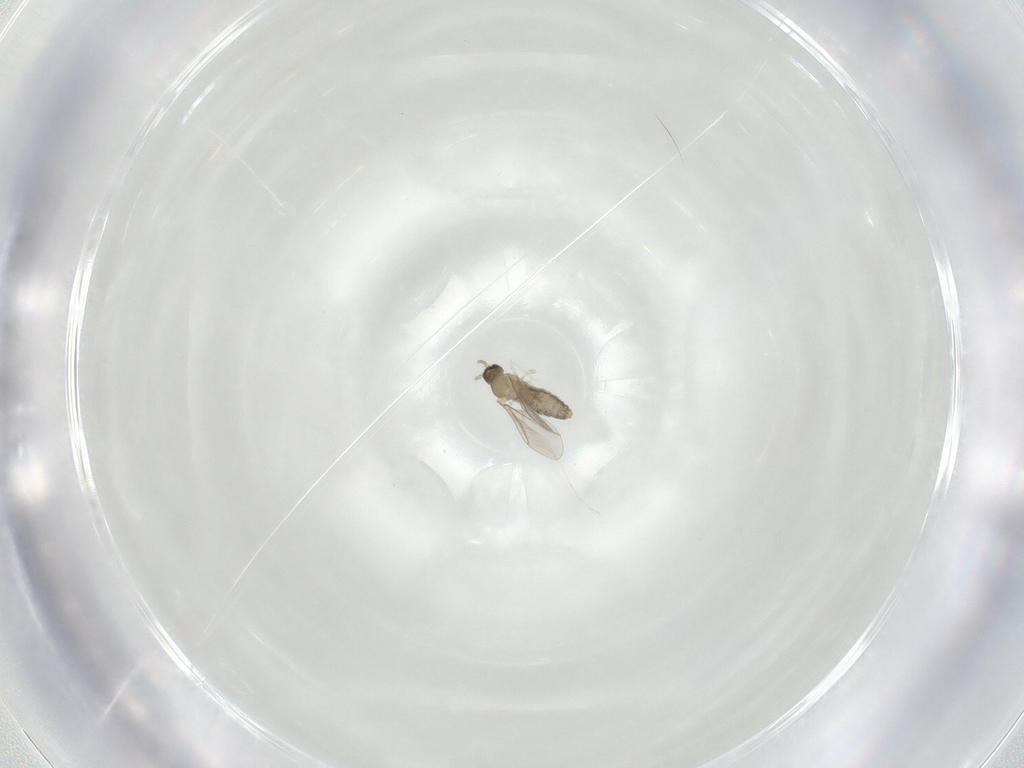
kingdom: Animalia
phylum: Arthropoda
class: Insecta
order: Diptera
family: Cecidomyiidae
